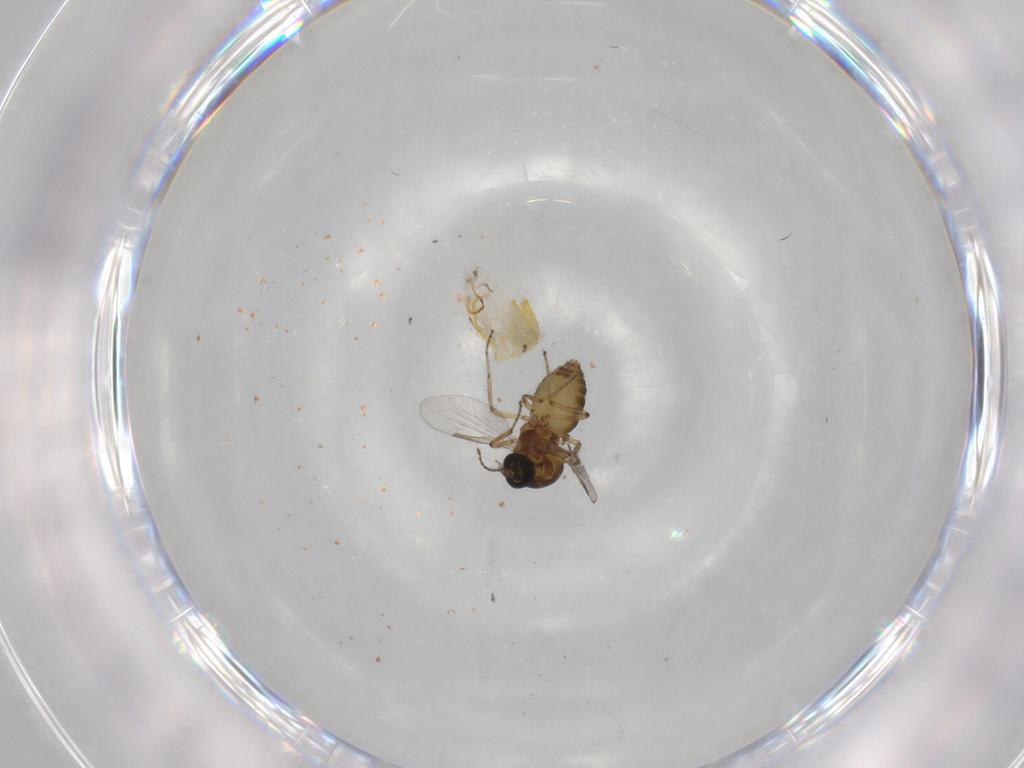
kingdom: Animalia
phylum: Arthropoda
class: Insecta
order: Diptera
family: Ceratopogonidae
